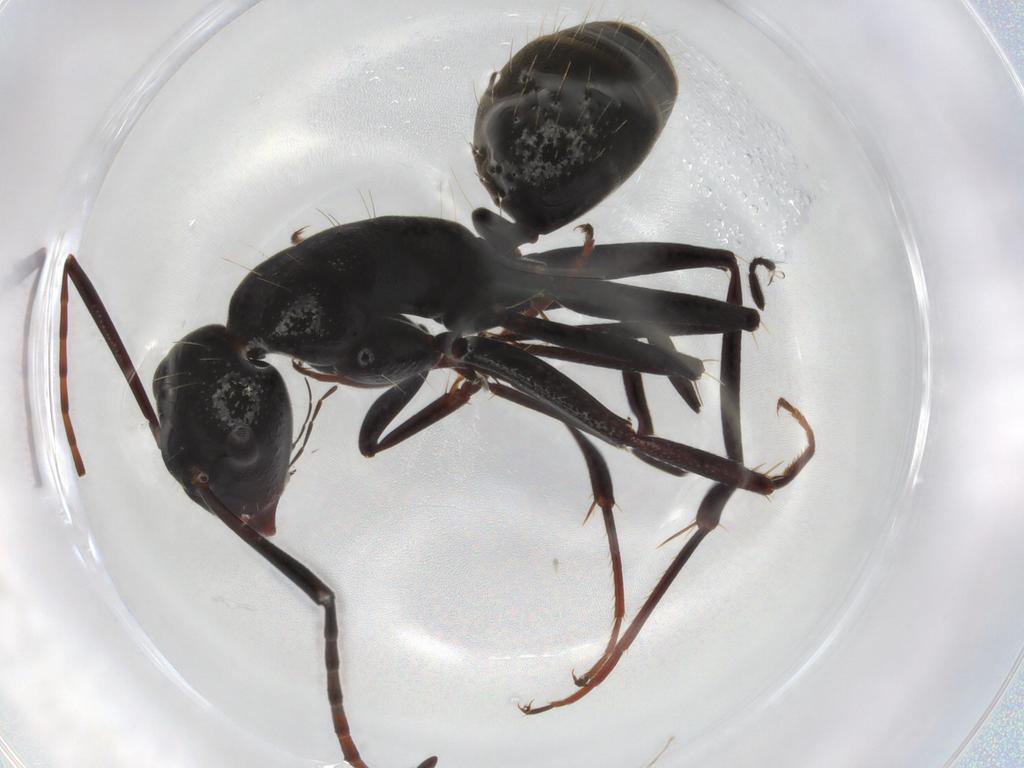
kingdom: Animalia
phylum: Arthropoda
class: Insecta
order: Hymenoptera
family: Formicidae
